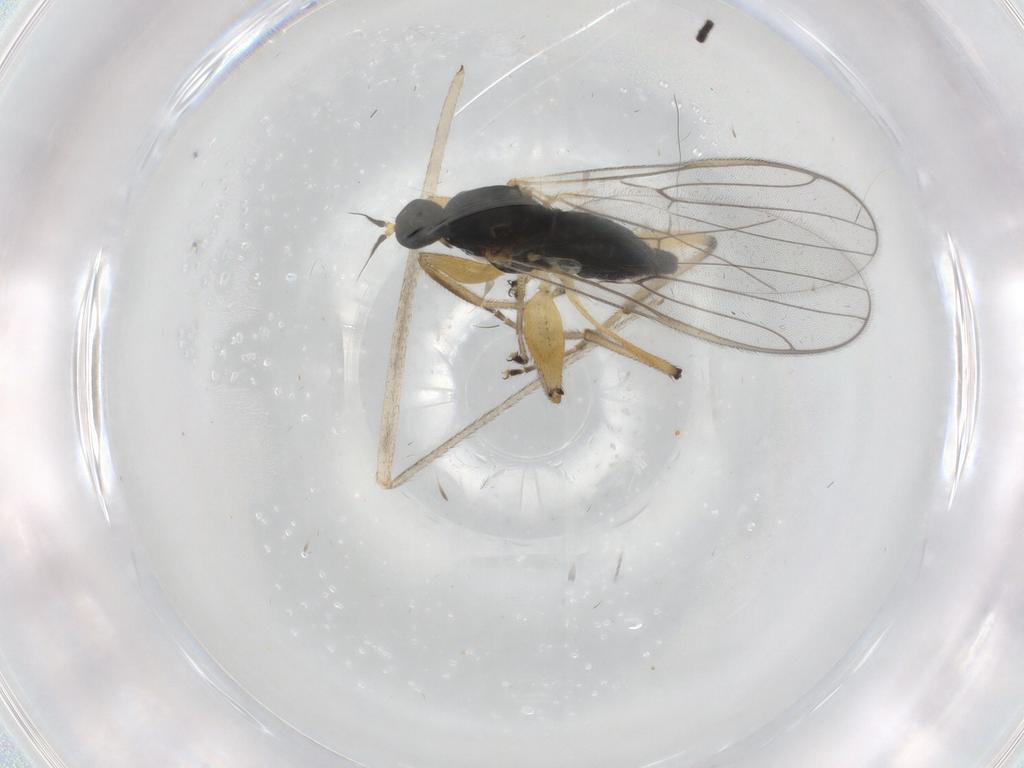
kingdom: Animalia
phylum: Arthropoda
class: Insecta
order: Diptera
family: Hybotidae
